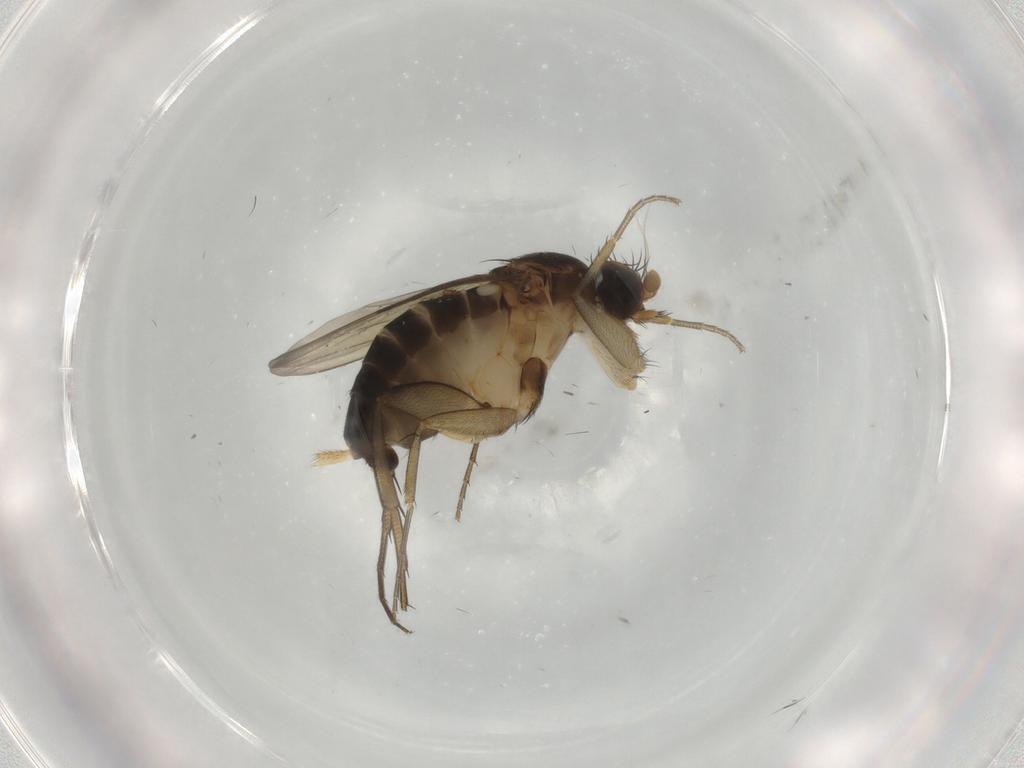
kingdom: Animalia
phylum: Arthropoda
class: Insecta
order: Diptera
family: Phoridae
